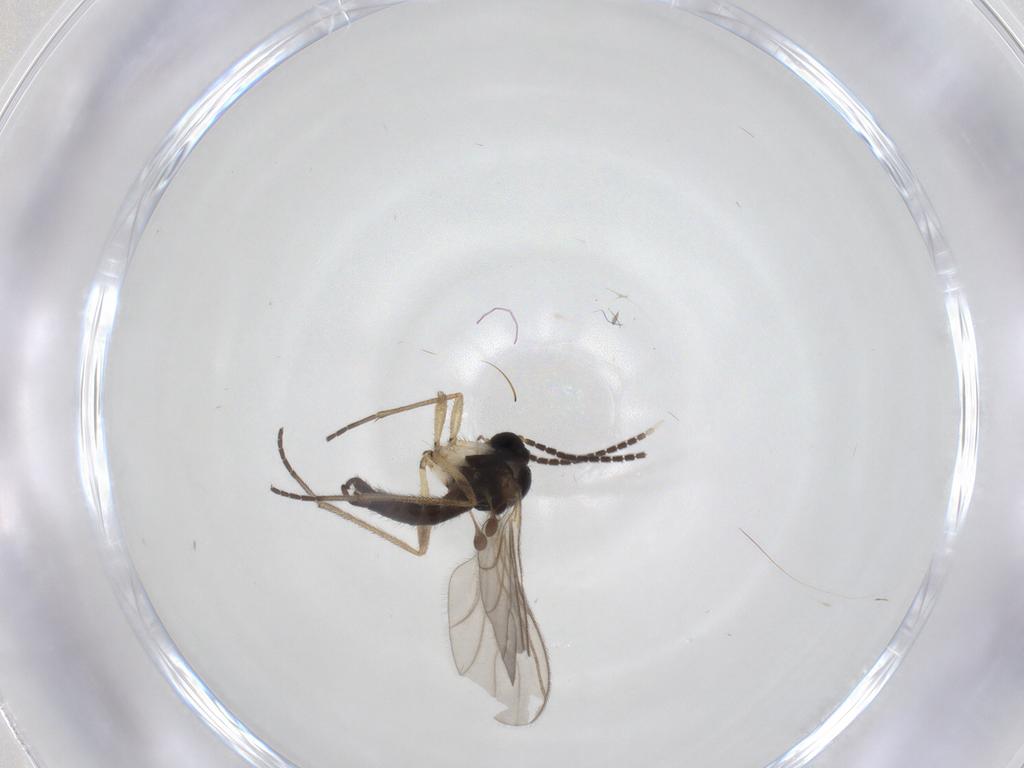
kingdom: Animalia
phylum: Arthropoda
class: Insecta
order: Diptera
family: Sciaridae
